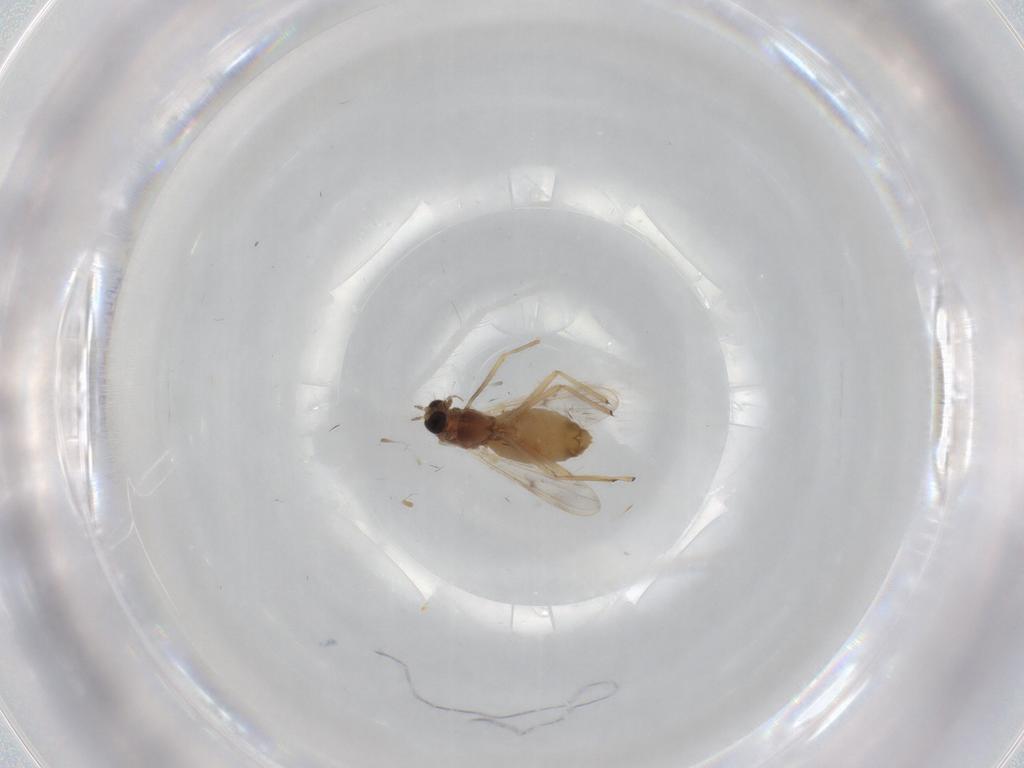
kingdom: Animalia
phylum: Arthropoda
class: Insecta
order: Diptera
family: Chironomidae
